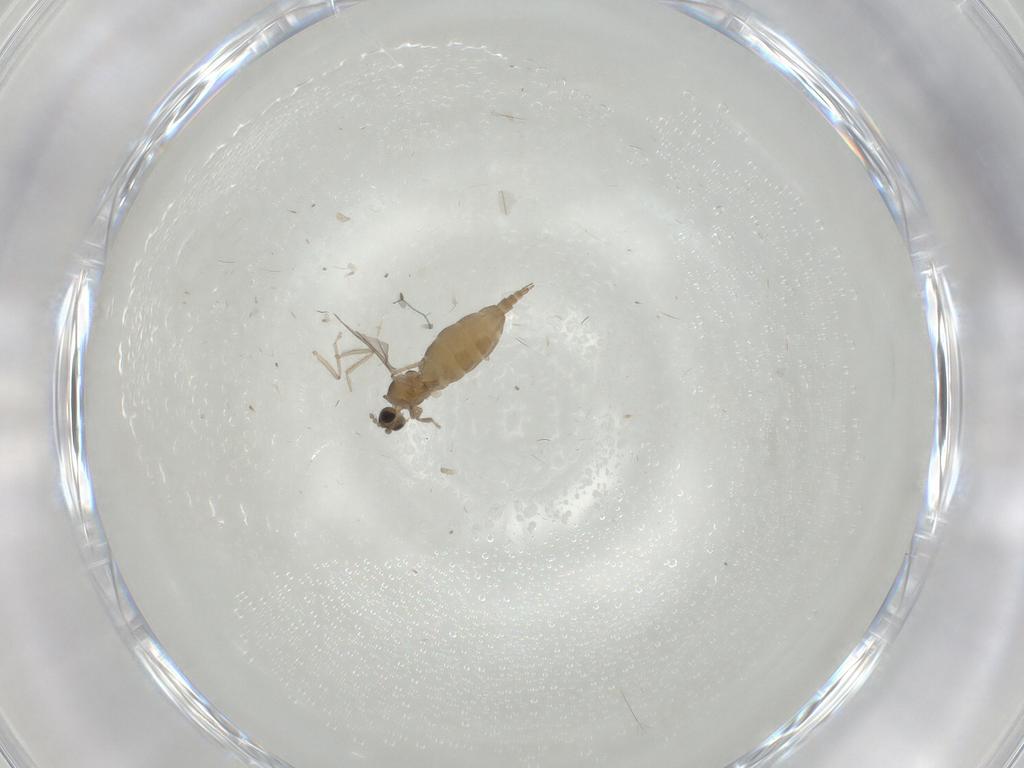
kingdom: Animalia
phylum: Arthropoda
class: Insecta
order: Diptera
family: Cecidomyiidae
